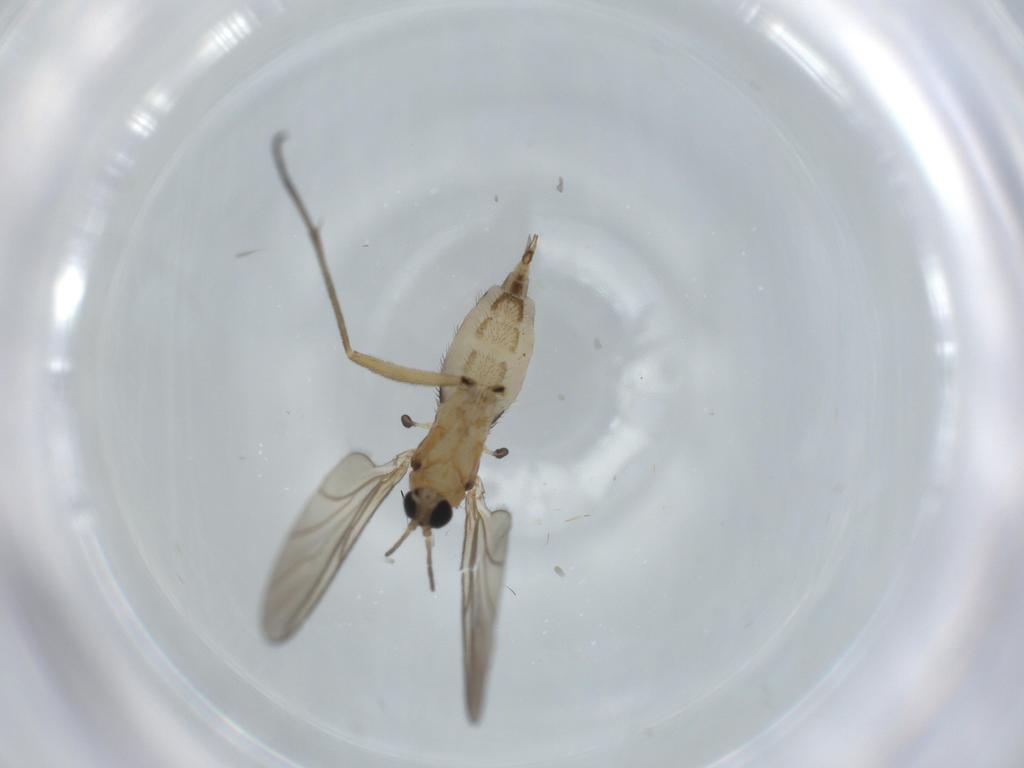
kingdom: Animalia
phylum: Arthropoda
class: Insecta
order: Diptera
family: Sciaridae
